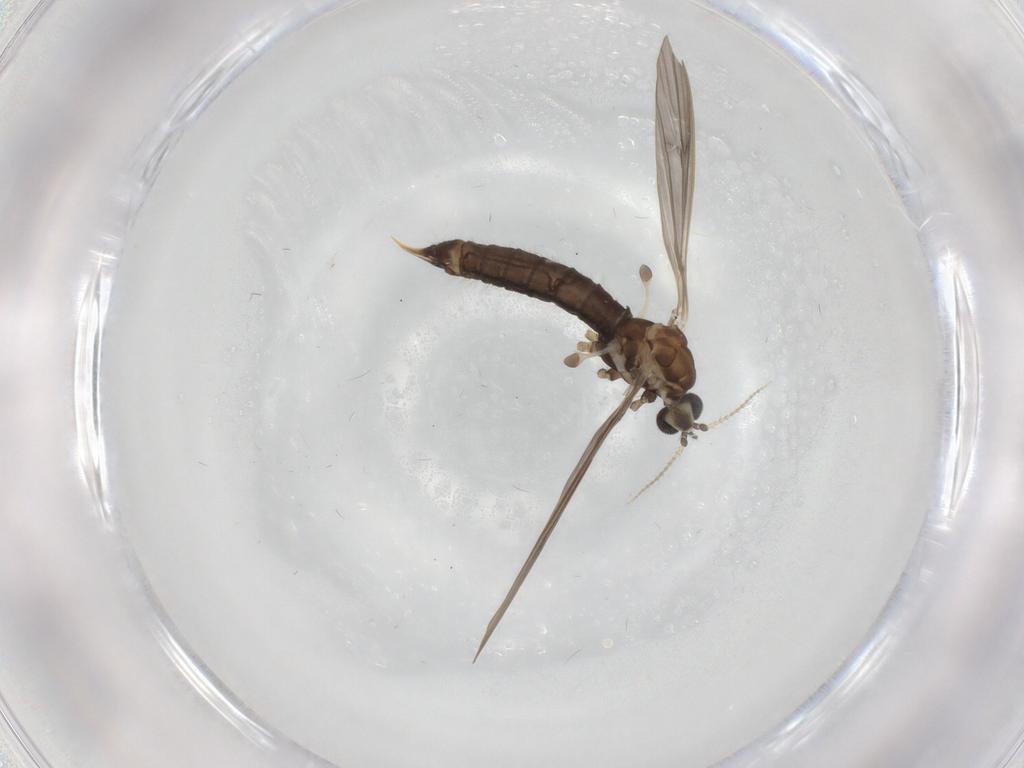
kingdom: Animalia
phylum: Arthropoda
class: Insecta
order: Diptera
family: Limoniidae
